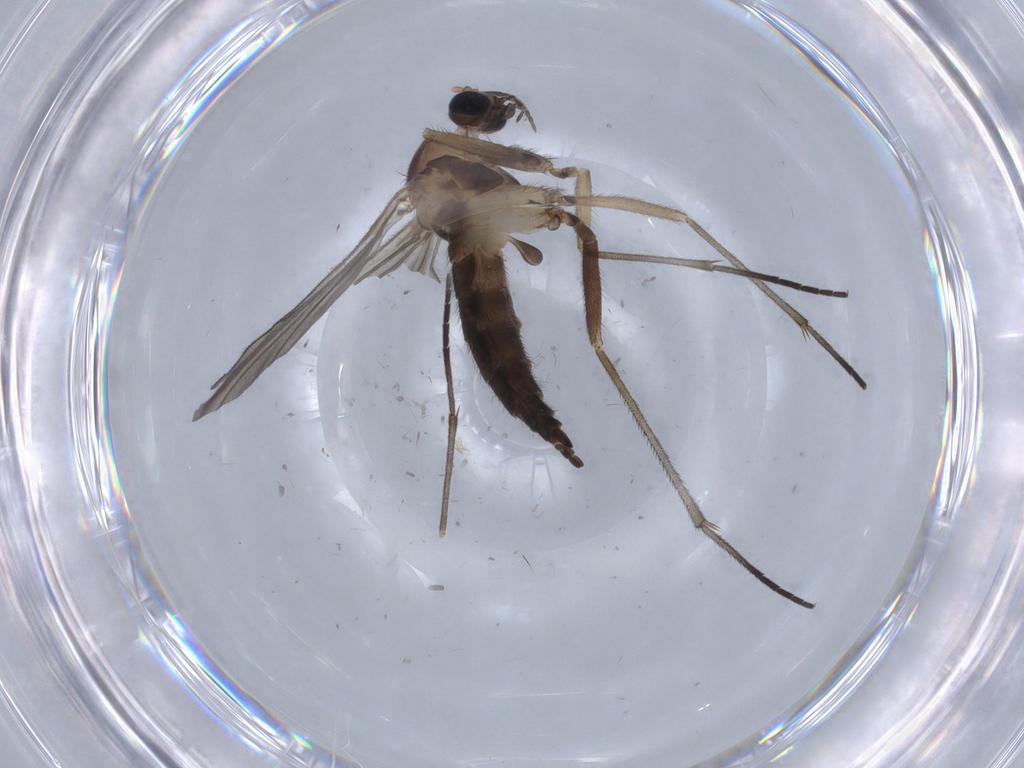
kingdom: Animalia
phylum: Arthropoda
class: Insecta
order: Diptera
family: Sciaridae
